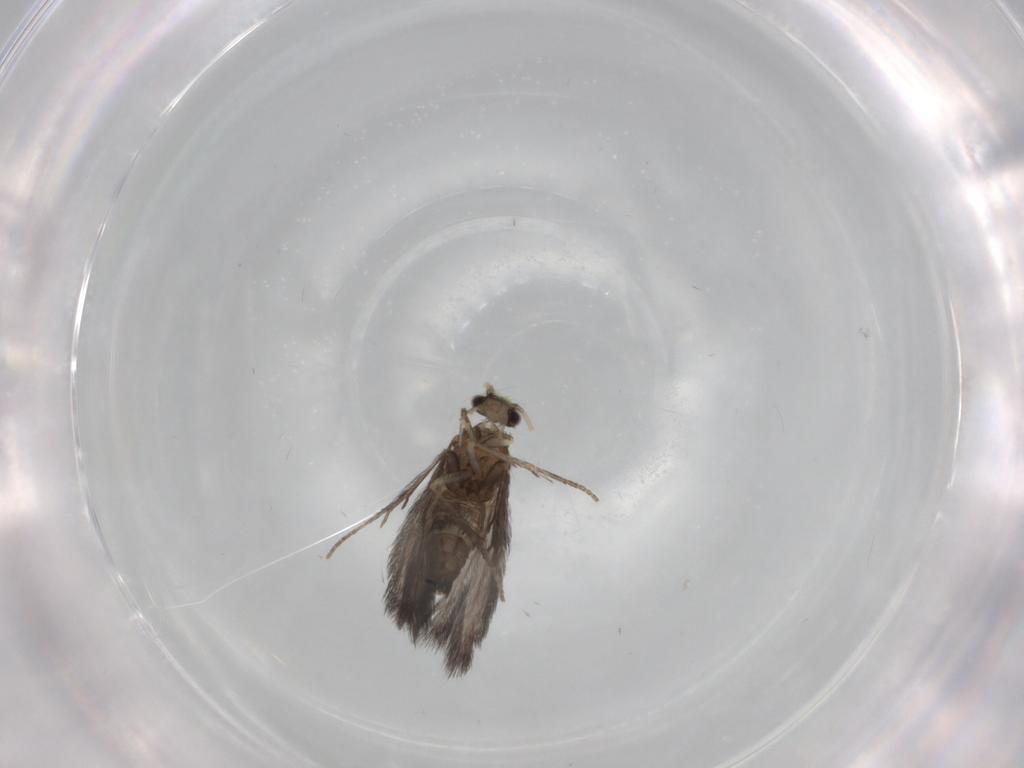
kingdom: Animalia
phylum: Arthropoda
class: Insecta
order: Trichoptera
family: Hydroptilidae
